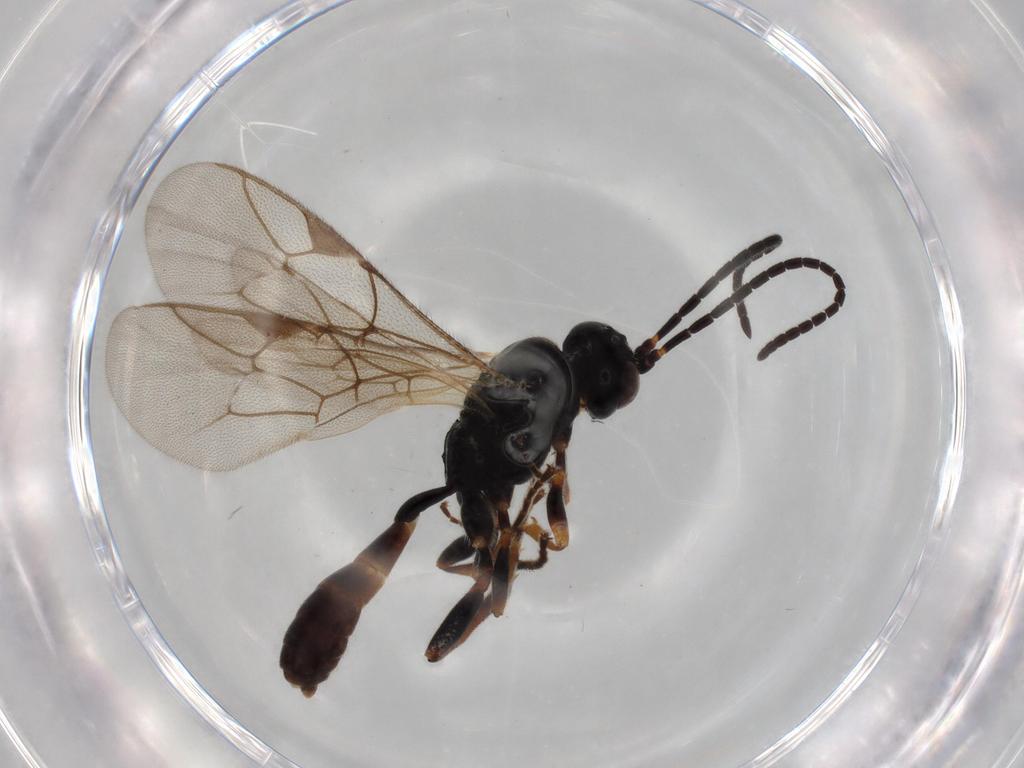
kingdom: Animalia
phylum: Arthropoda
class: Insecta
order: Hymenoptera
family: Ichneumonidae
